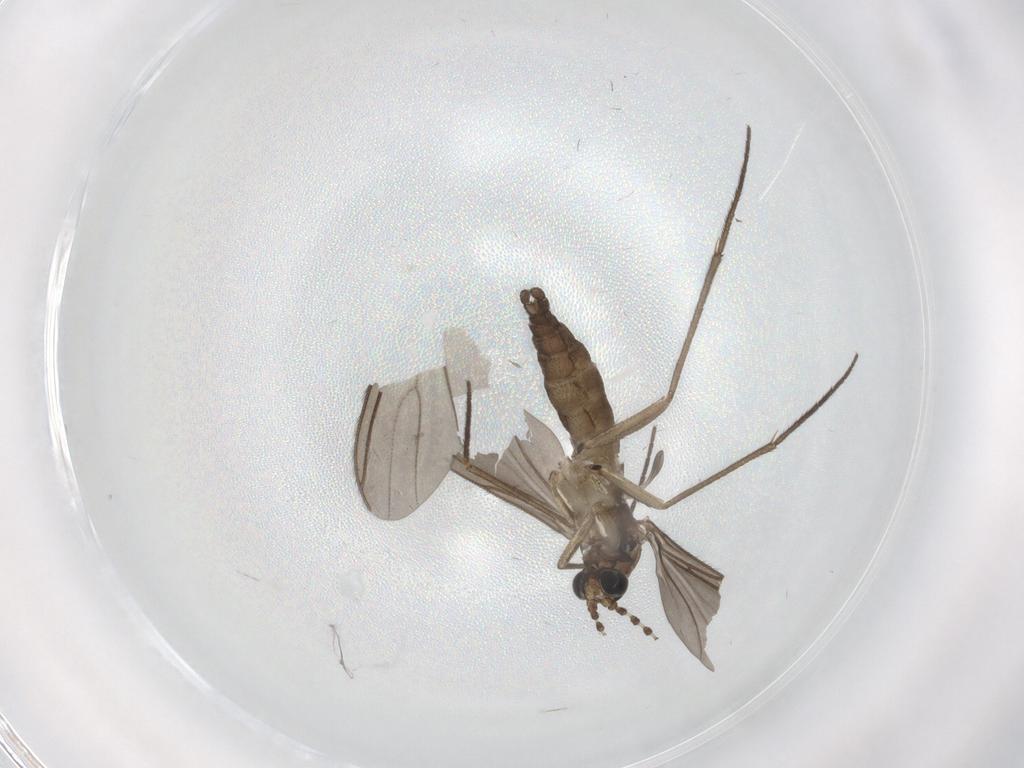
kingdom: Animalia
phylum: Arthropoda
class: Insecta
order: Diptera
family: Sciaridae
